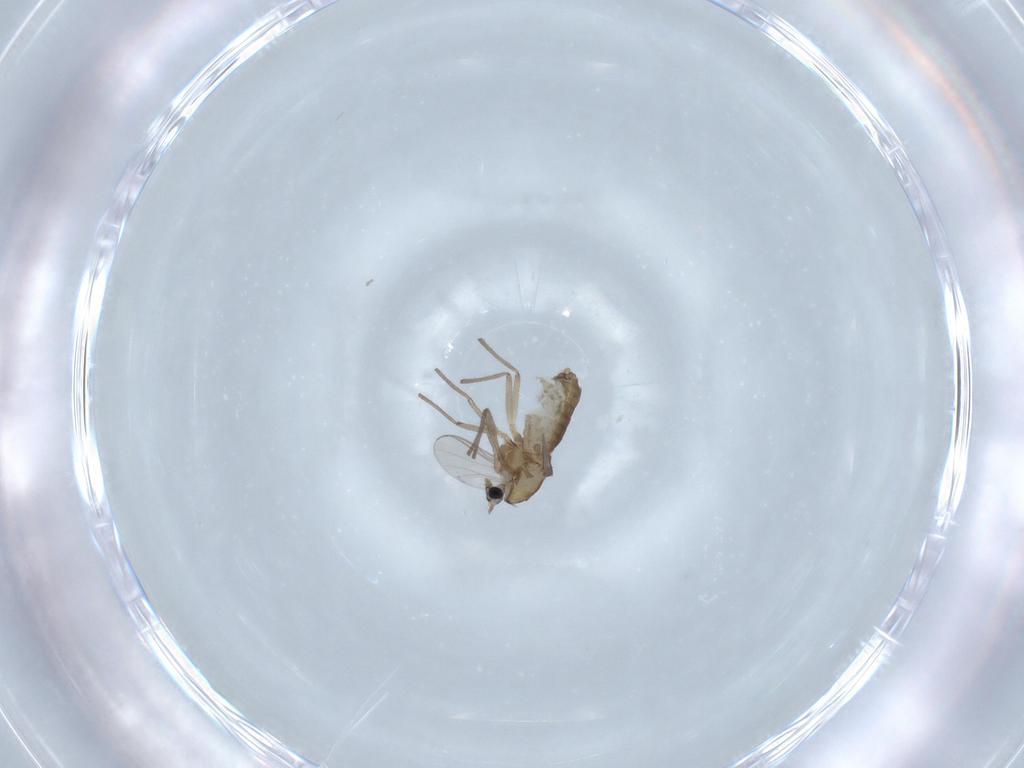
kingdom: Animalia
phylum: Arthropoda
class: Insecta
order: Diptera
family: Chironomidae
